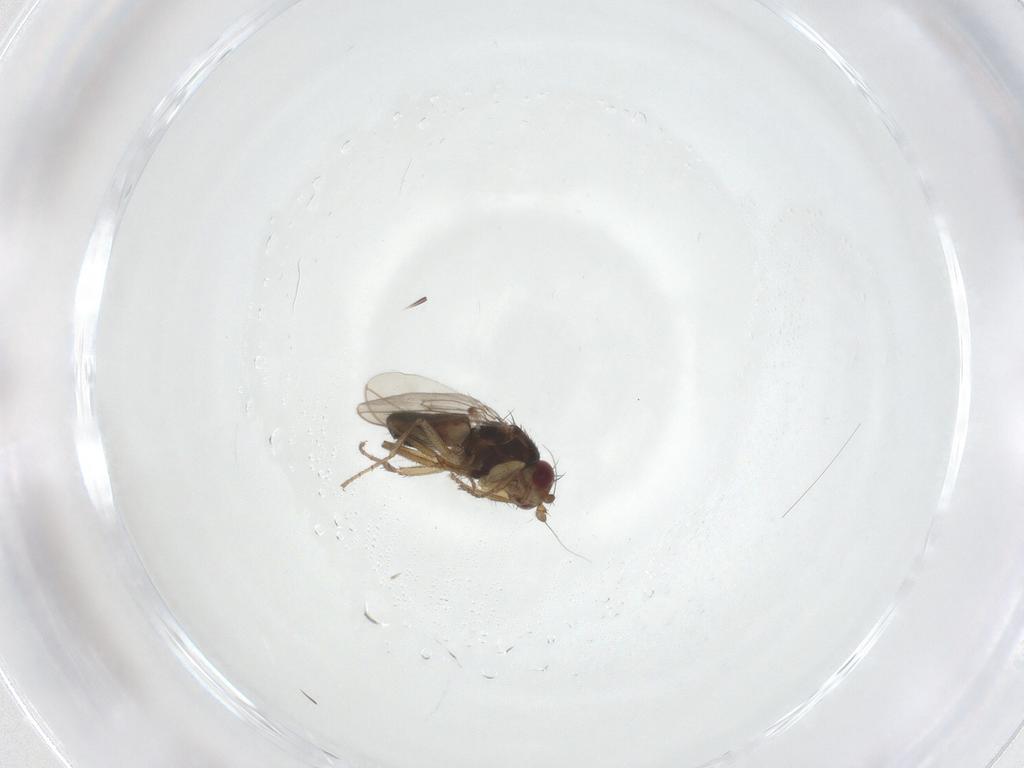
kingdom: Animalia
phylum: Arthropoda
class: Insecta
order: Diptera
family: Sphaeroceridae
